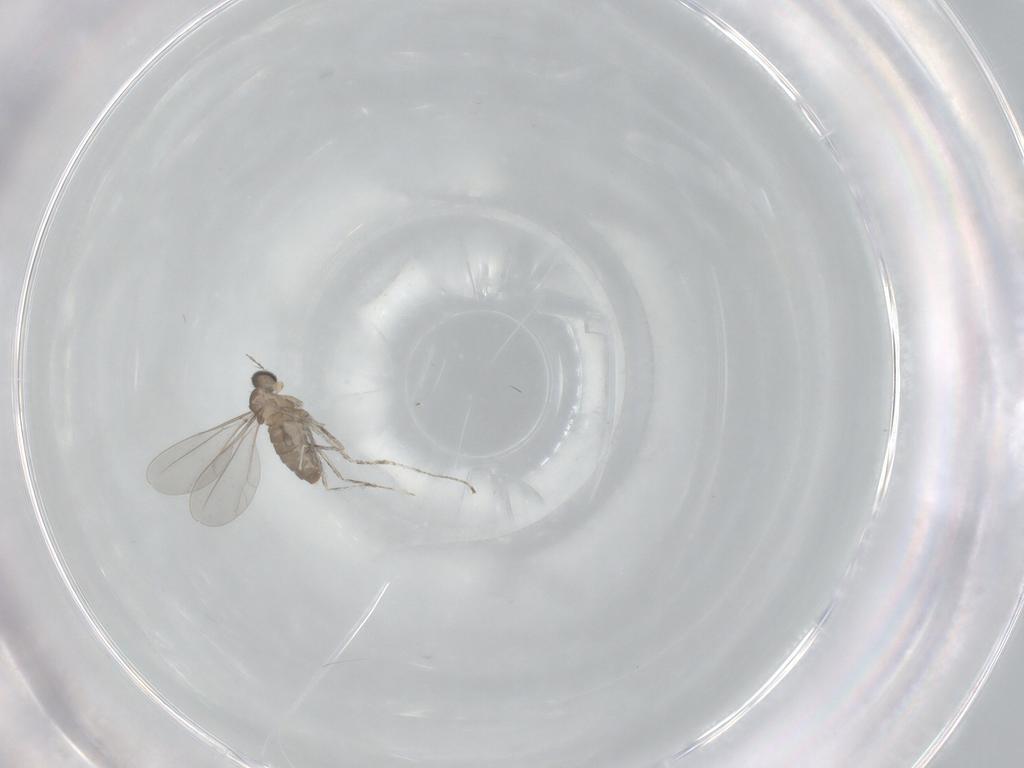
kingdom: Animalia
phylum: Arthropoda
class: Insecta
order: Diptera
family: Cecidomyiidae
